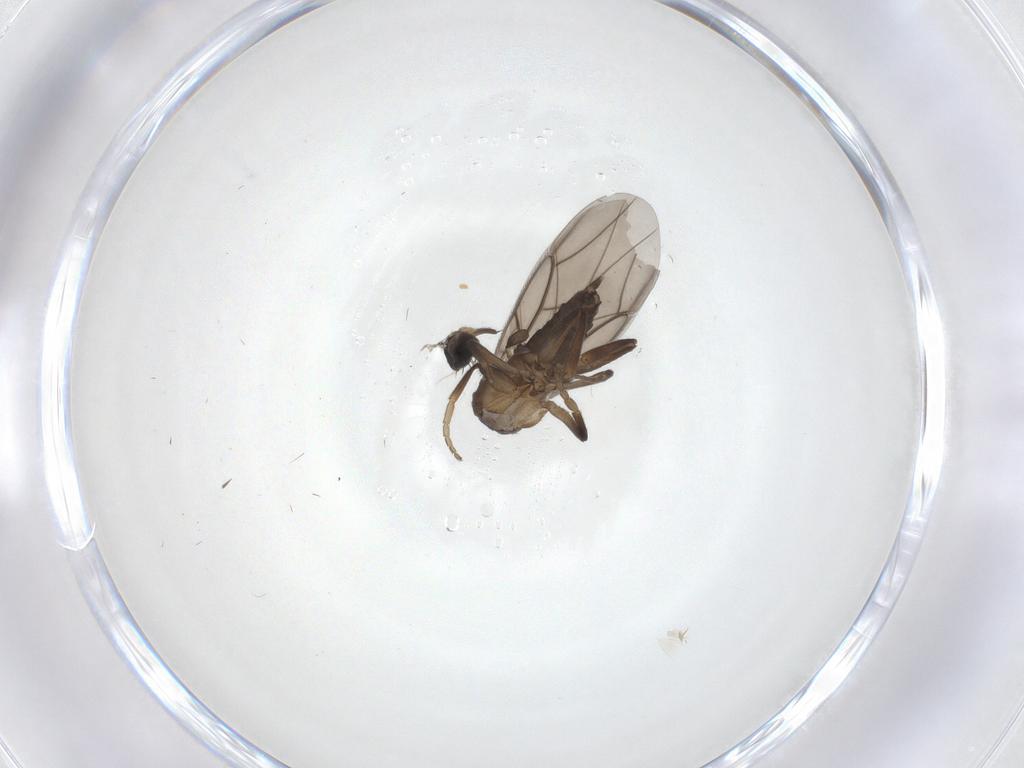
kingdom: Animalia
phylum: Arthropoda
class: Insecta
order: Diptera
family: Phoridae
